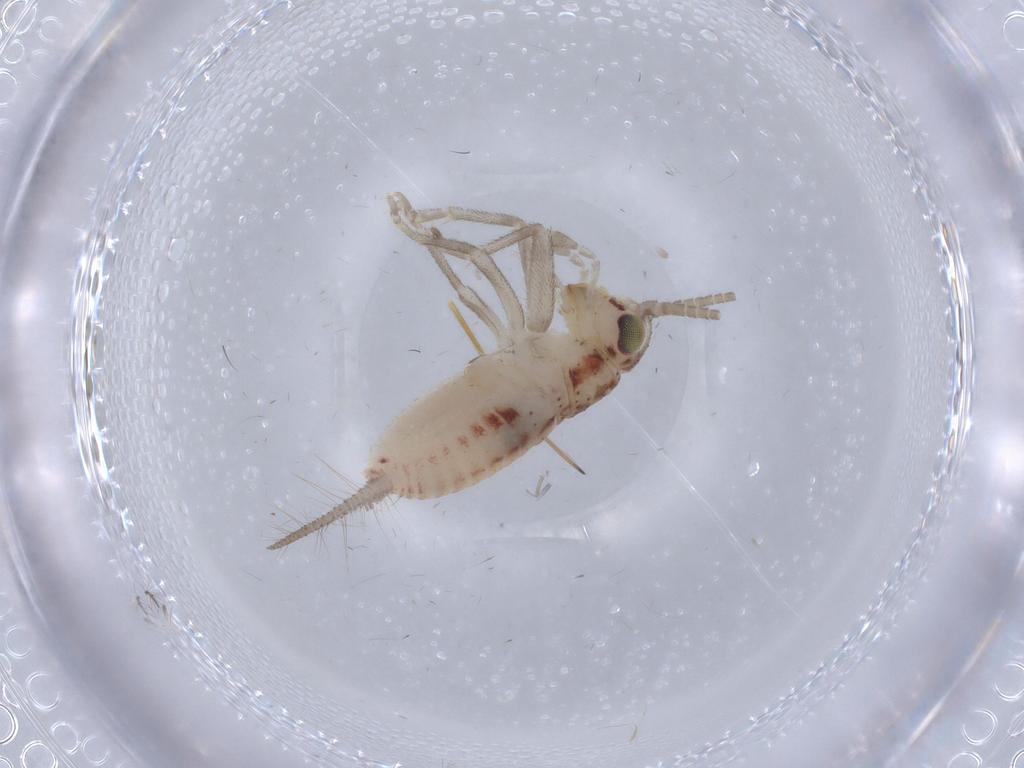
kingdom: Animalia
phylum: Arthropoda
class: Insecta
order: Orthoptera
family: Trigonidiidae
